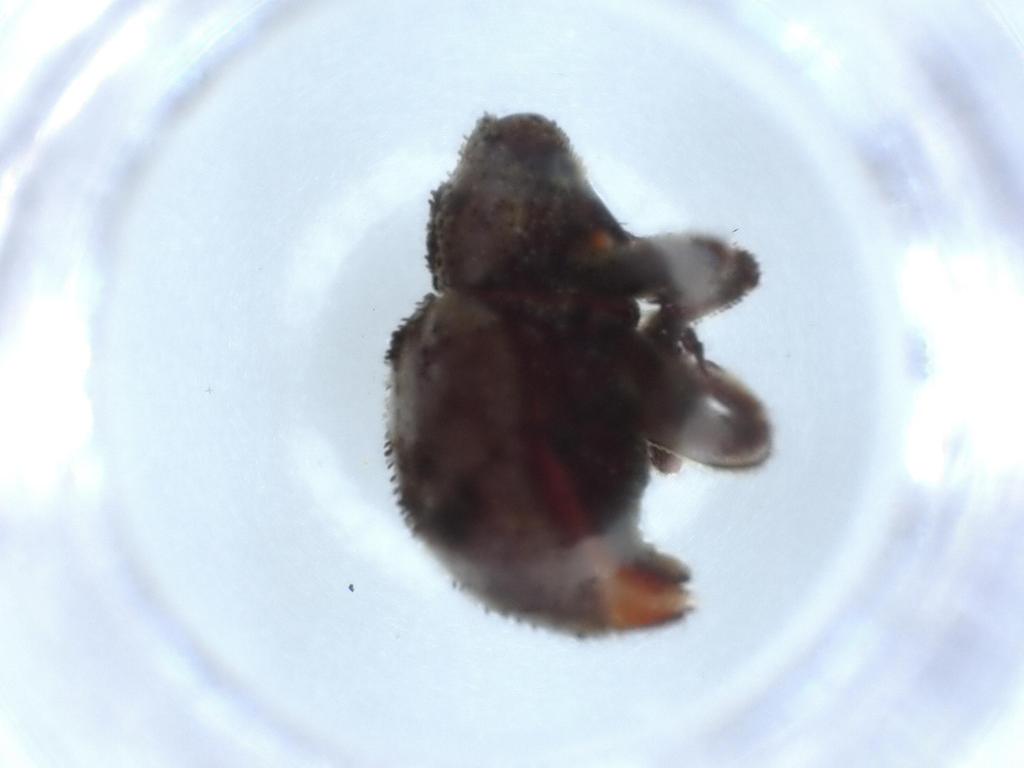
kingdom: Animalia
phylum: Arthropoda
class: Insecta
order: Coleoptera
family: Curculionidae
